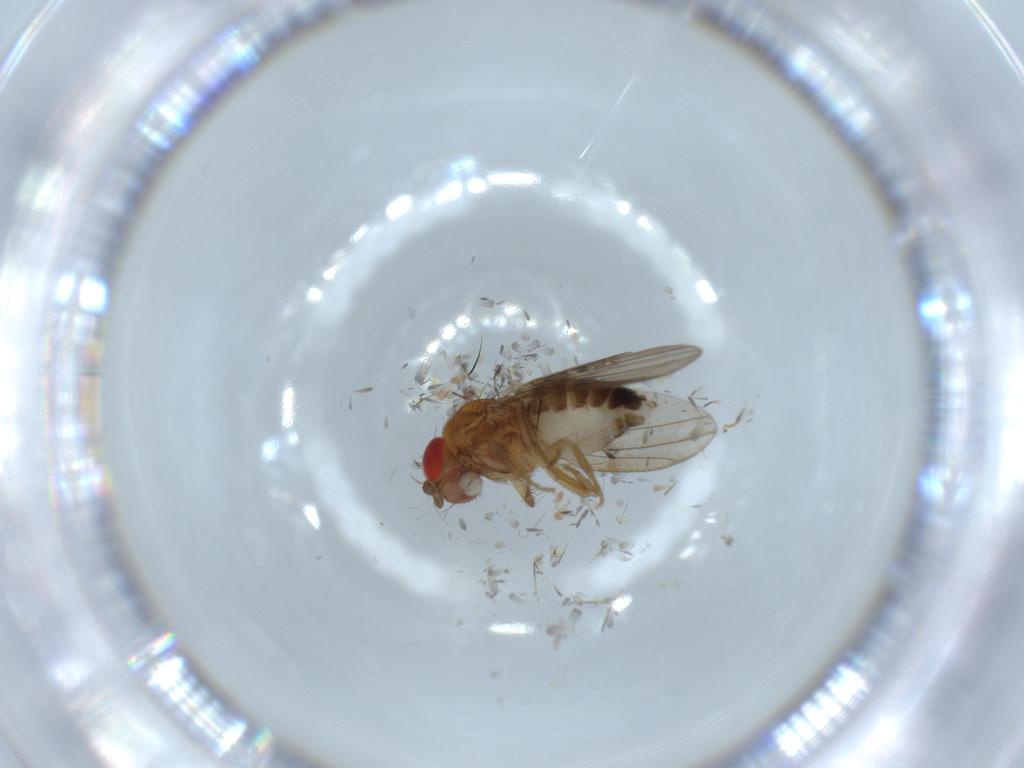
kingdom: Animalia
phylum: Arthropoda
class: Insecta
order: Diptera
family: Drosophilidae
